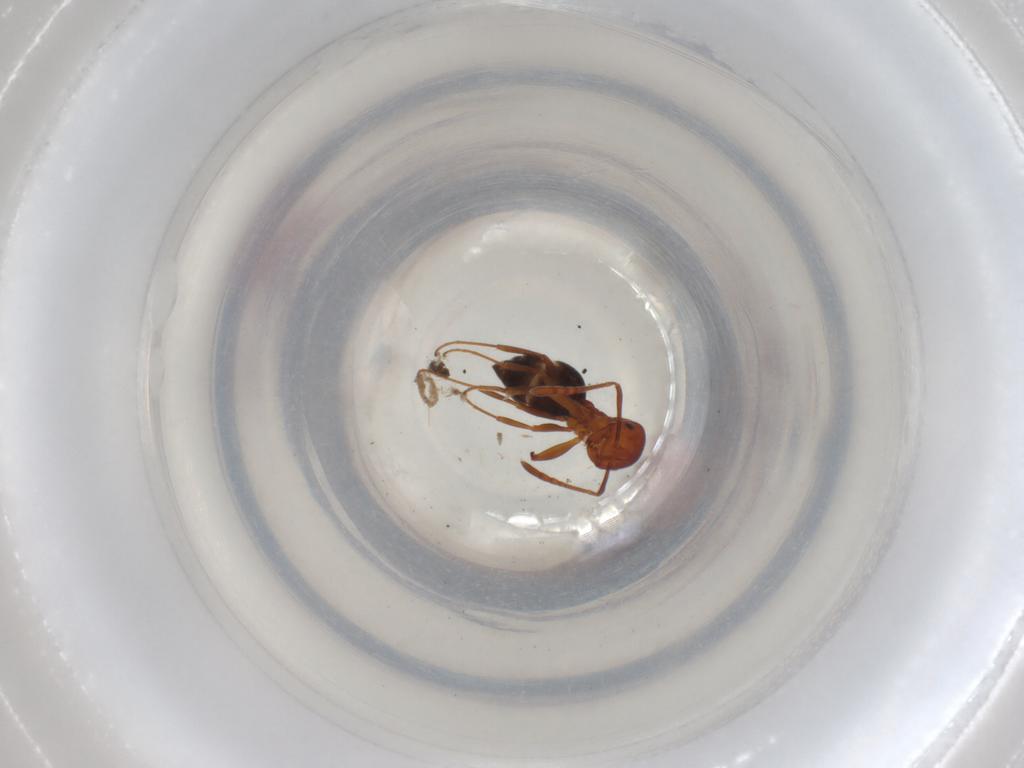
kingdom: Animalia
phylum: Arthropoda
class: Insecta
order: Hymenoptera
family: Formicidae
